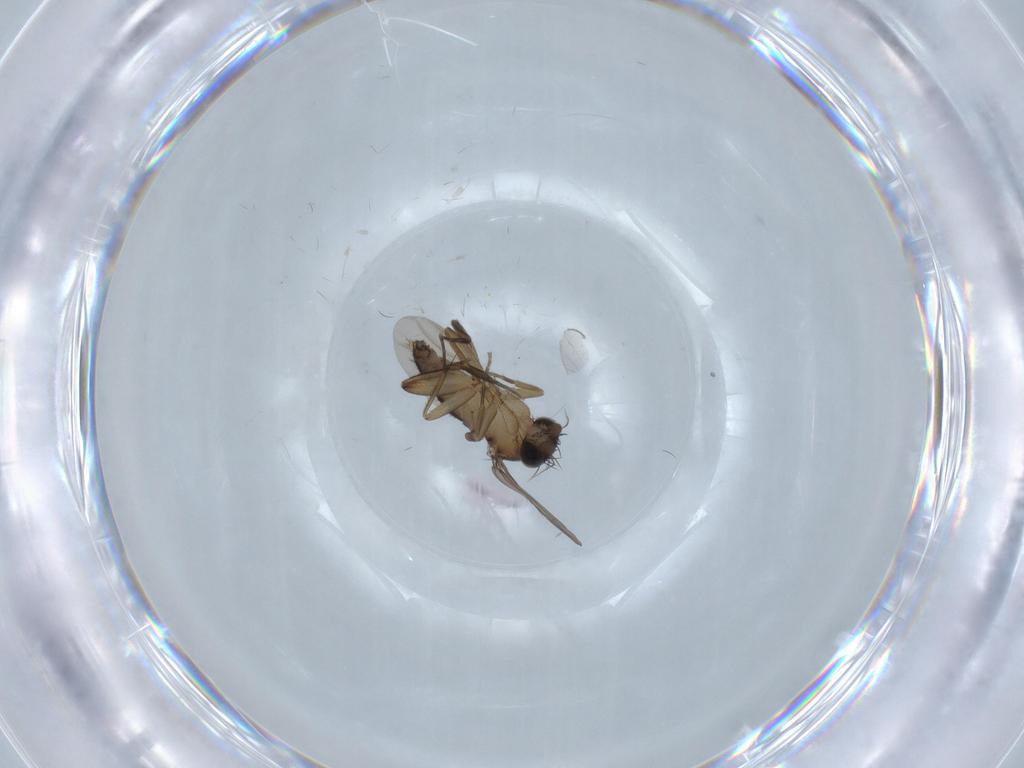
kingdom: Animalia
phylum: Arthropoda
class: Insecta
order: Diptera
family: Phoridae
